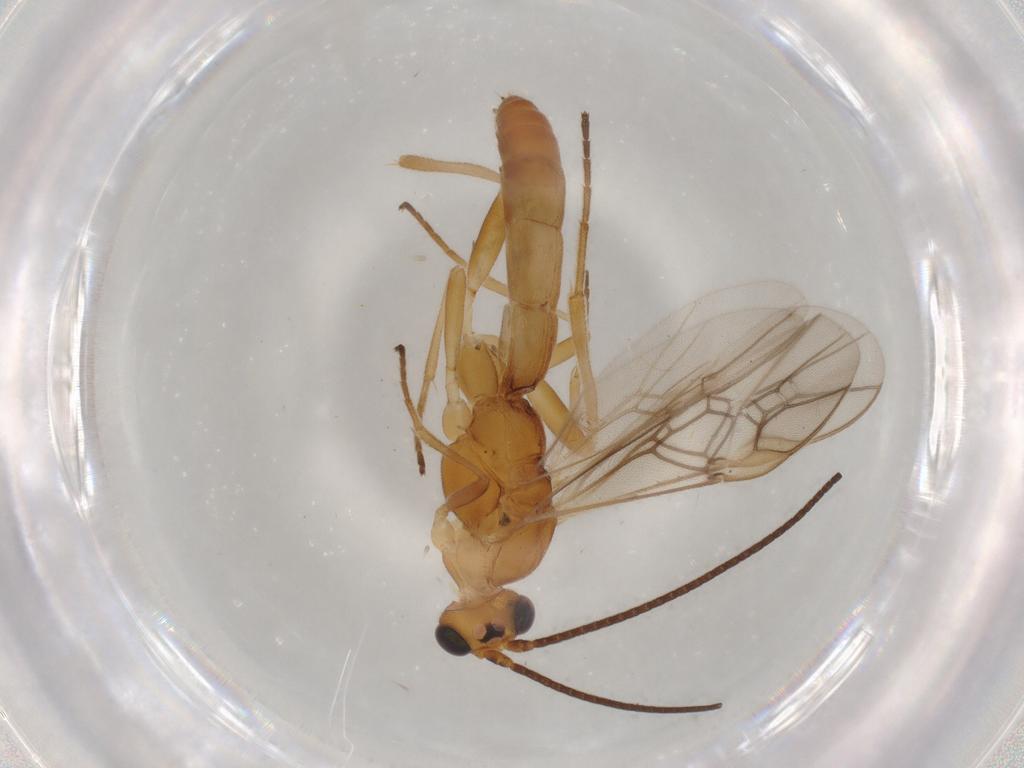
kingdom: Animalia
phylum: Arthropoda
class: Insecta
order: Hymenoptera
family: Braconidae
